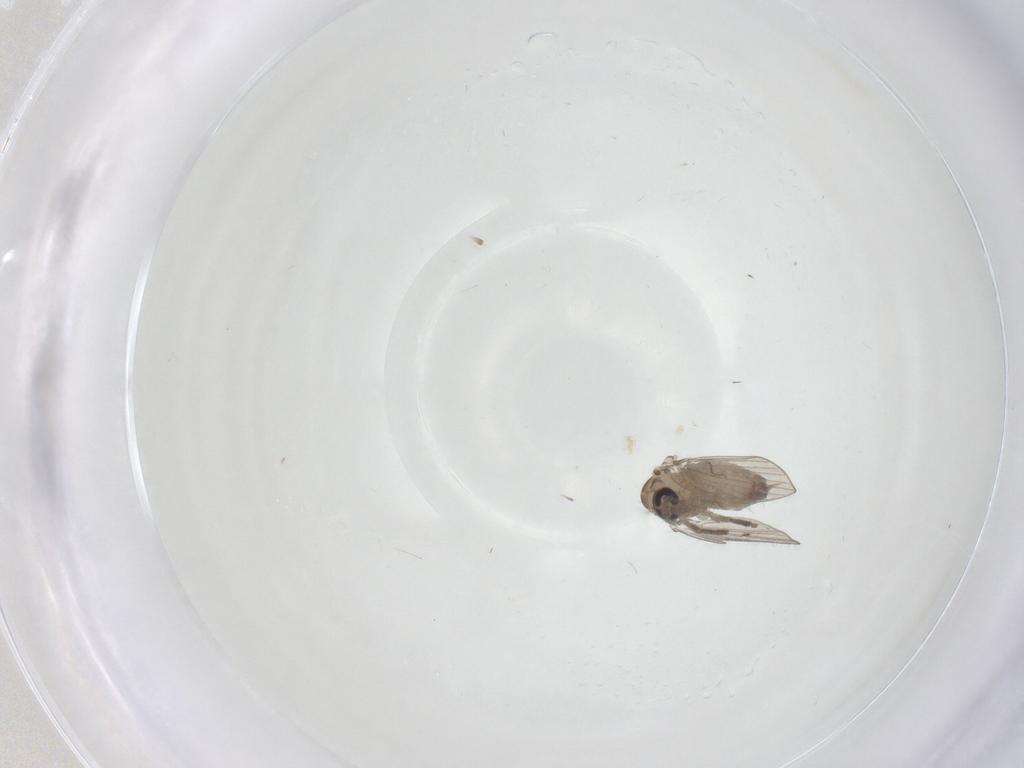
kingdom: Animalia
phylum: Arthropoda
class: Insecta
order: Diptera
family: Psychodidae
